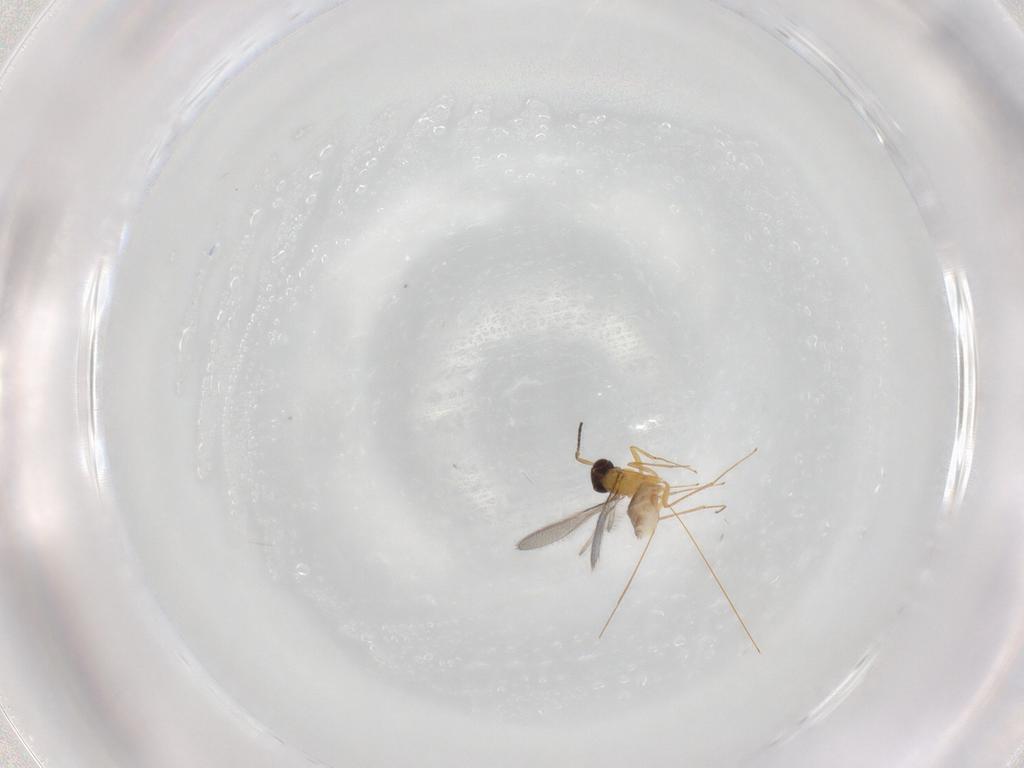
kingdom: Animalia
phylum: Arthropoda
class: Insecta
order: Hymenoptera
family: Mymaridae
